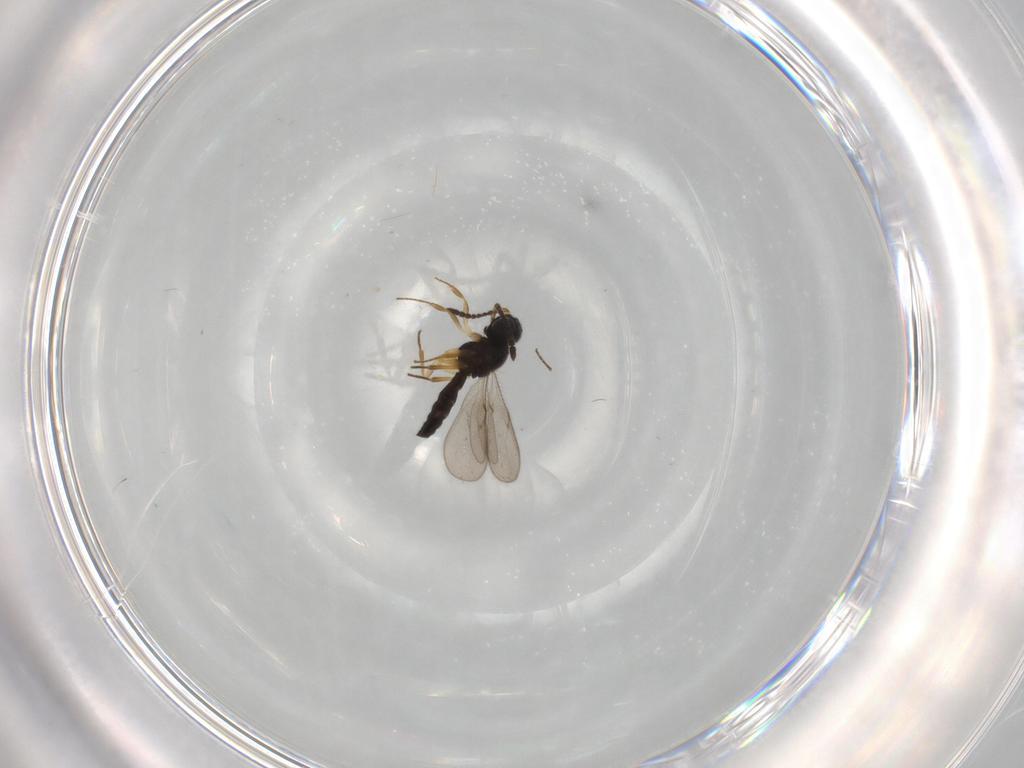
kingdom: Animalia
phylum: Arthropoda
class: Insecta
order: Hymenoptera
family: Scelionidae
